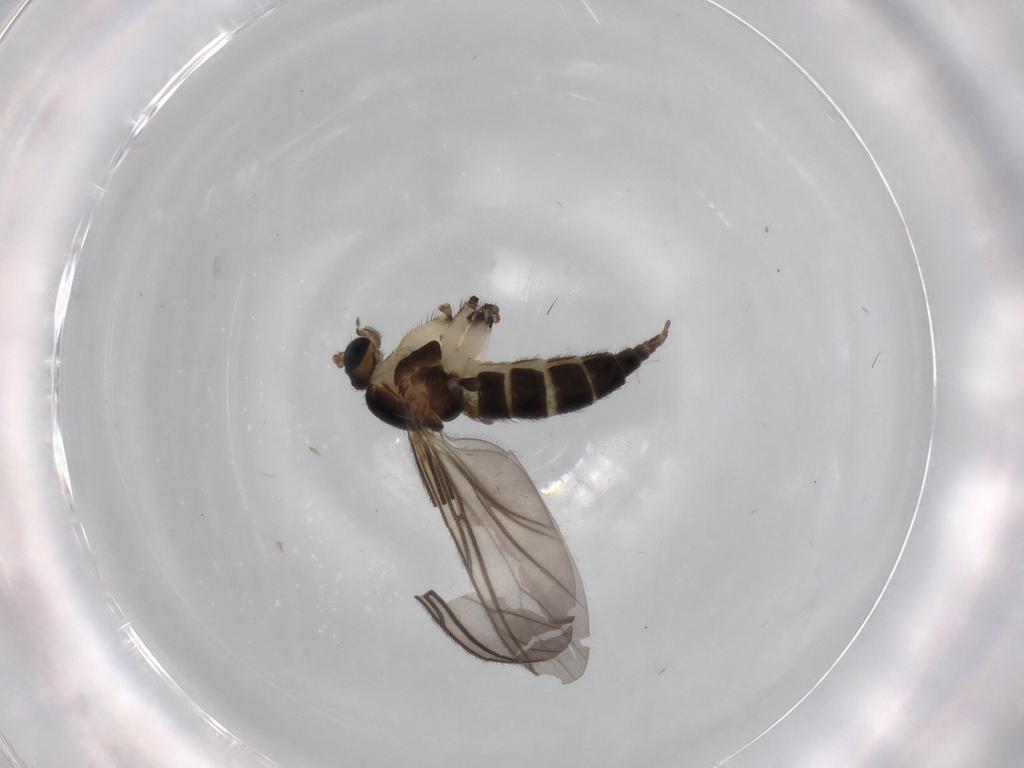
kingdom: Animalia
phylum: Arthropoda
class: Insecta
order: Diptera
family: Sciaridae
